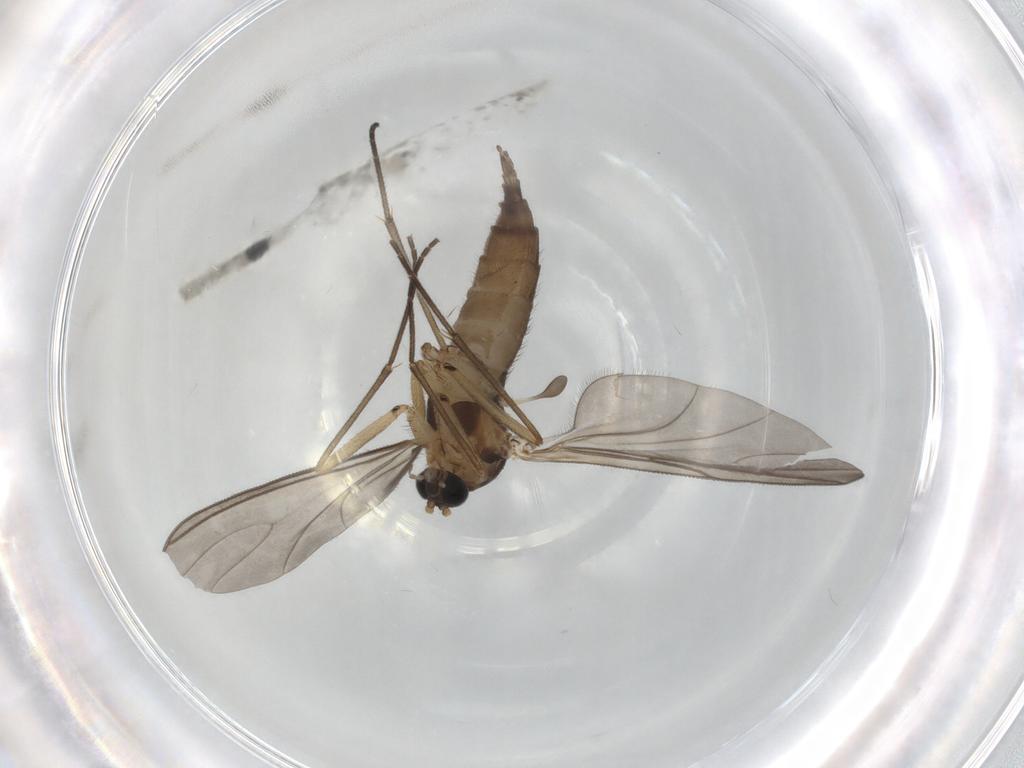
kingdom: Animalia
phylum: Arthropoda
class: Insecta
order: Diptera
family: Sciaridae
